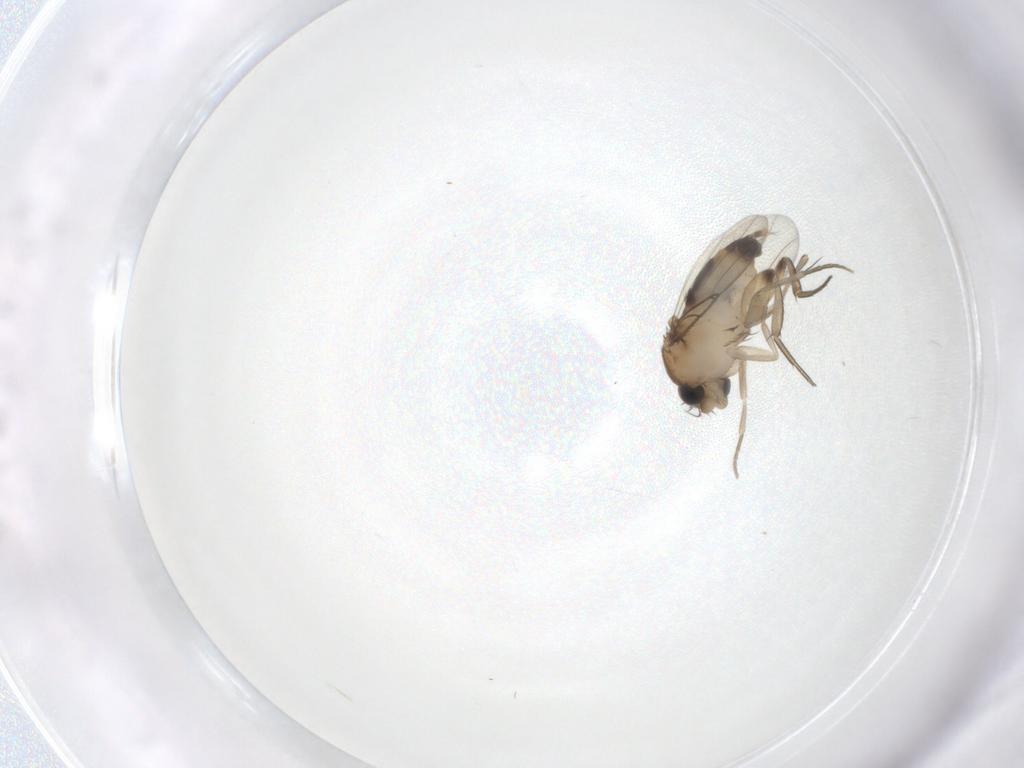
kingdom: Animalia
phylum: Arthropoda
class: Insecta
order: Diptera
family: Phoridae
